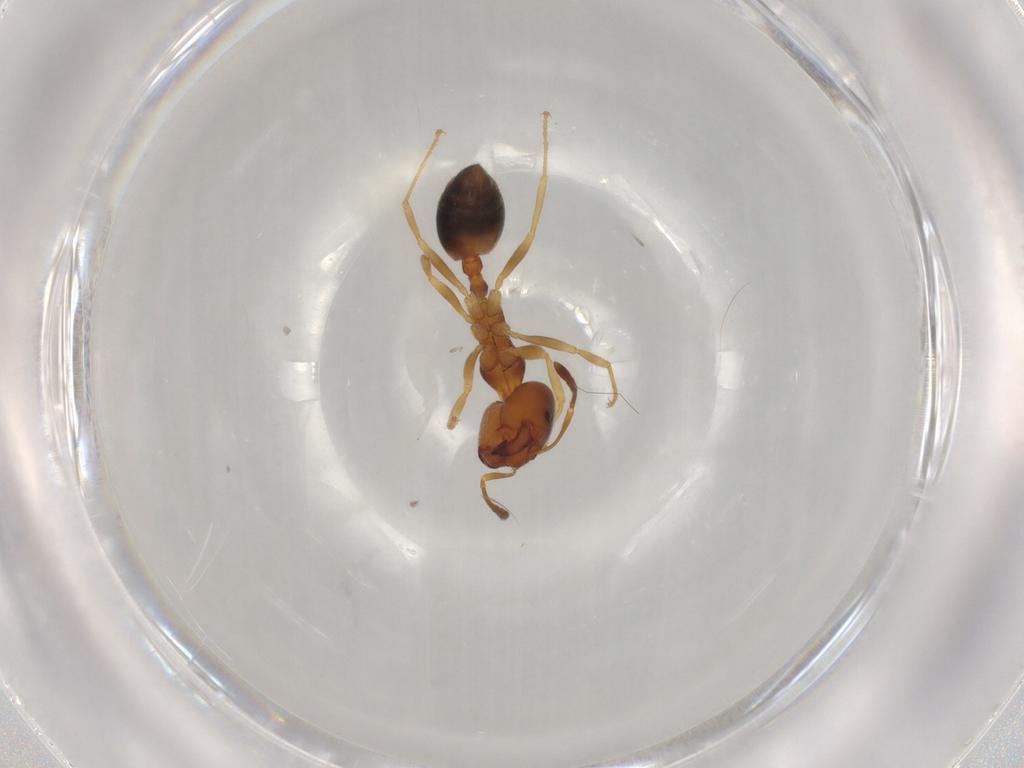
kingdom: Animalia
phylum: Arthropoda
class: Insecta
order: Hymenoptera
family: Formicidae
